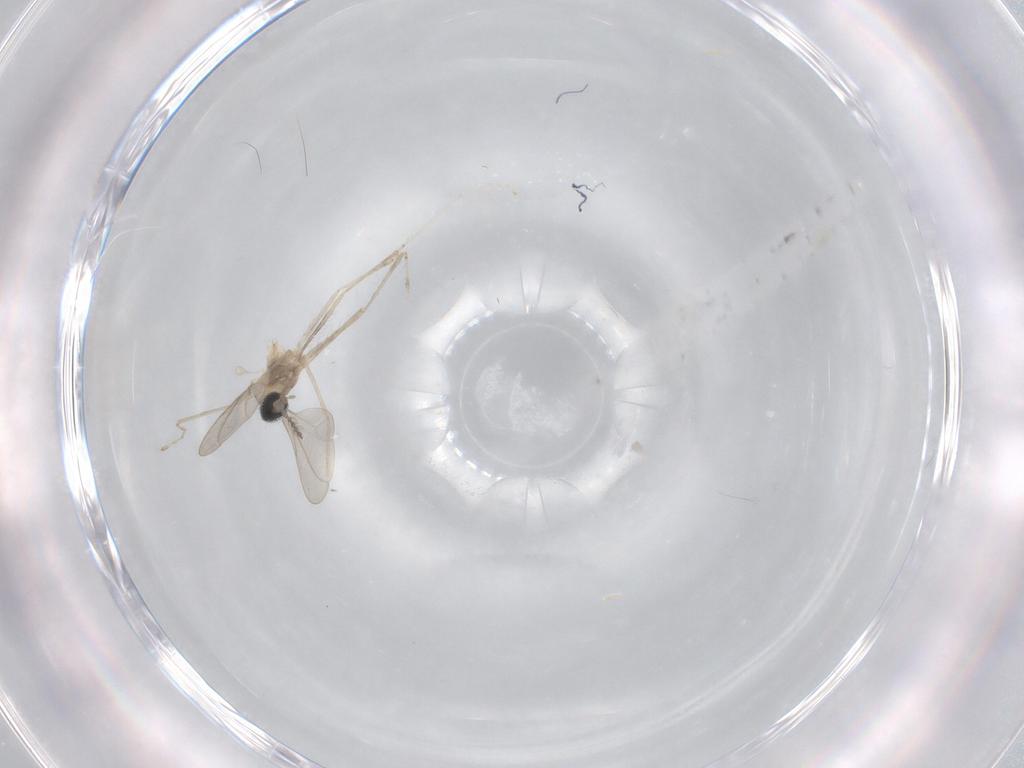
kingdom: Animalia
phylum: Arthropoda
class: Insecta
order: Diptera
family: Cecidomyiidae
